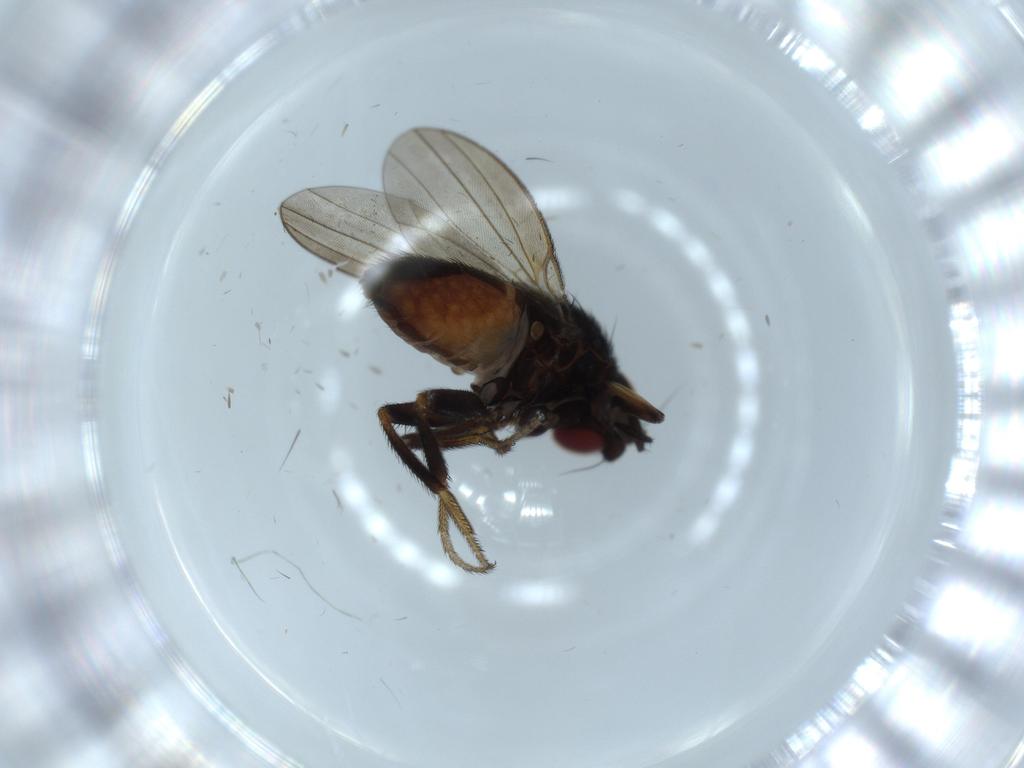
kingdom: Animalia
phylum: Arthropoda
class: Insecta
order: Diptera
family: Milichiidae
